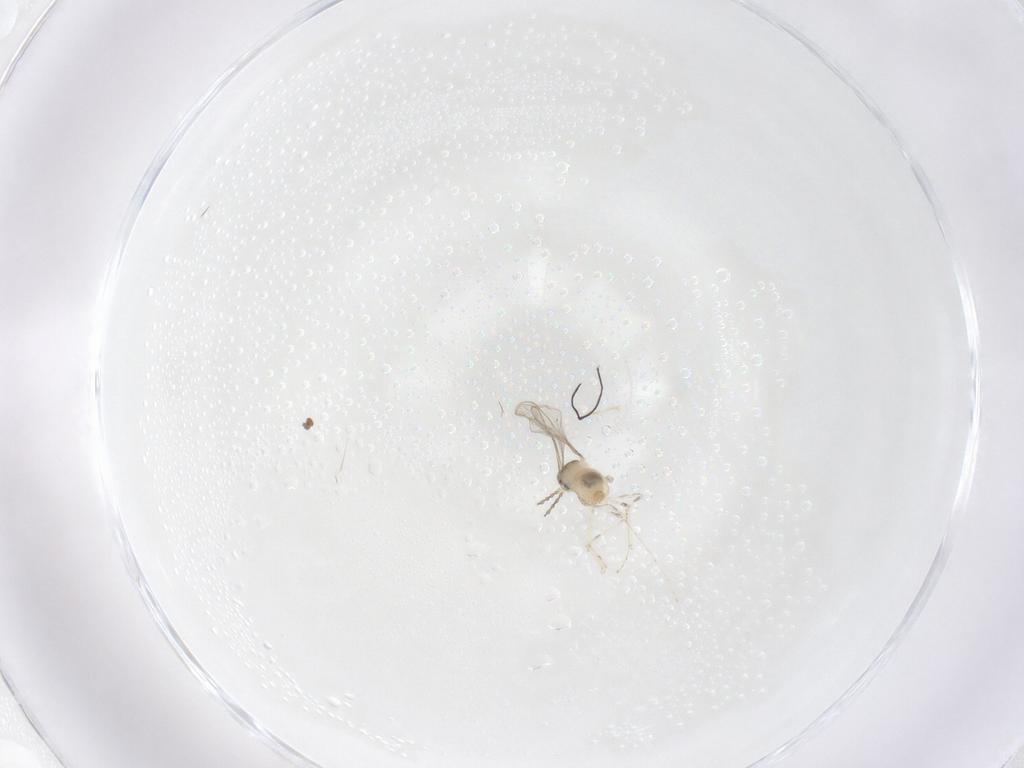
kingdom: Animalia
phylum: Arthropoda
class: Insecta
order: Diptera
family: Cecidomyiidae
